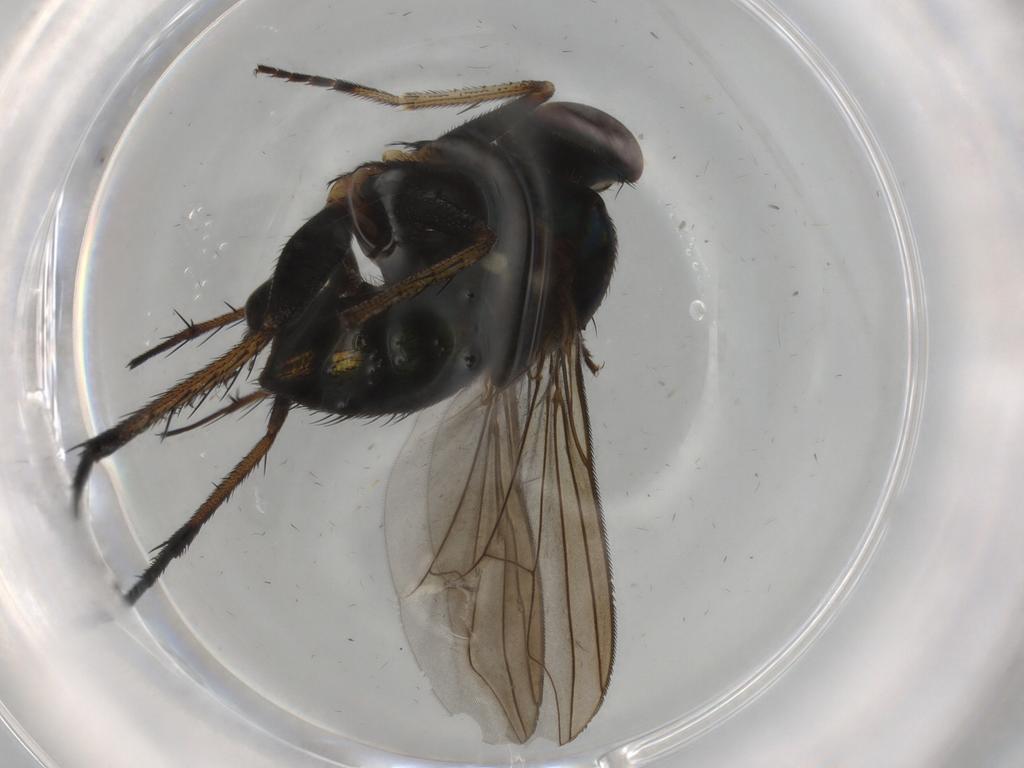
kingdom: Animalia
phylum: Arthropoda
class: Insecta
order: Diptera
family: Dolichopodidae
